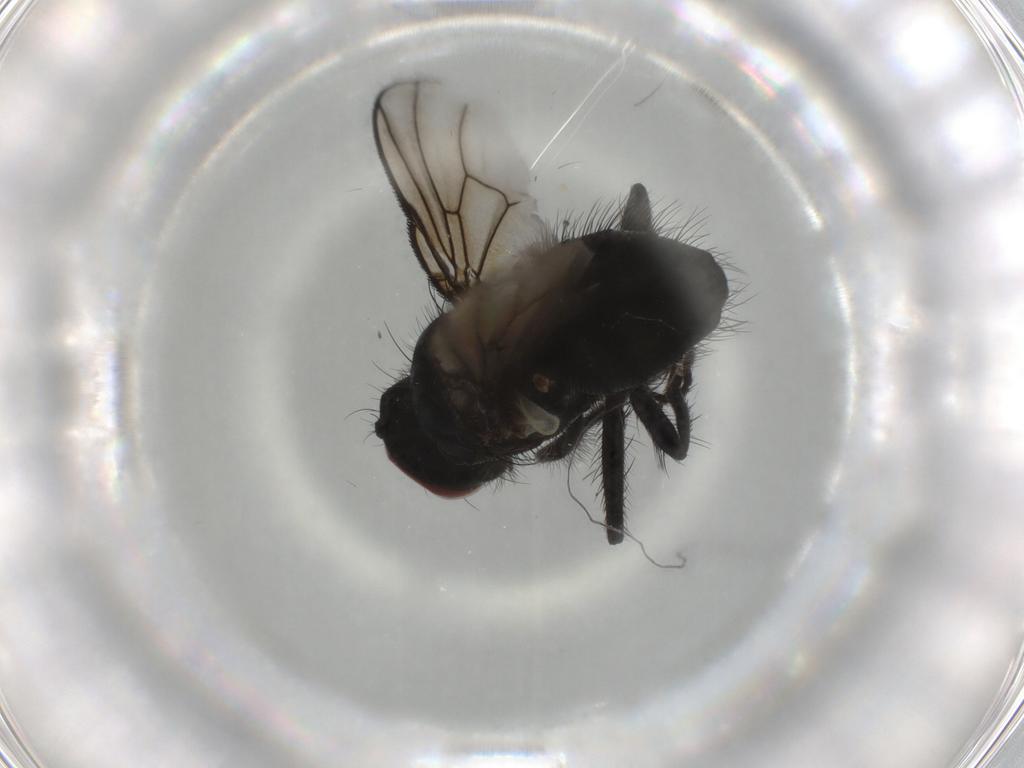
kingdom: Animalia
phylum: Arthropoda
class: Insecta
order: Diptera
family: Muscidae
